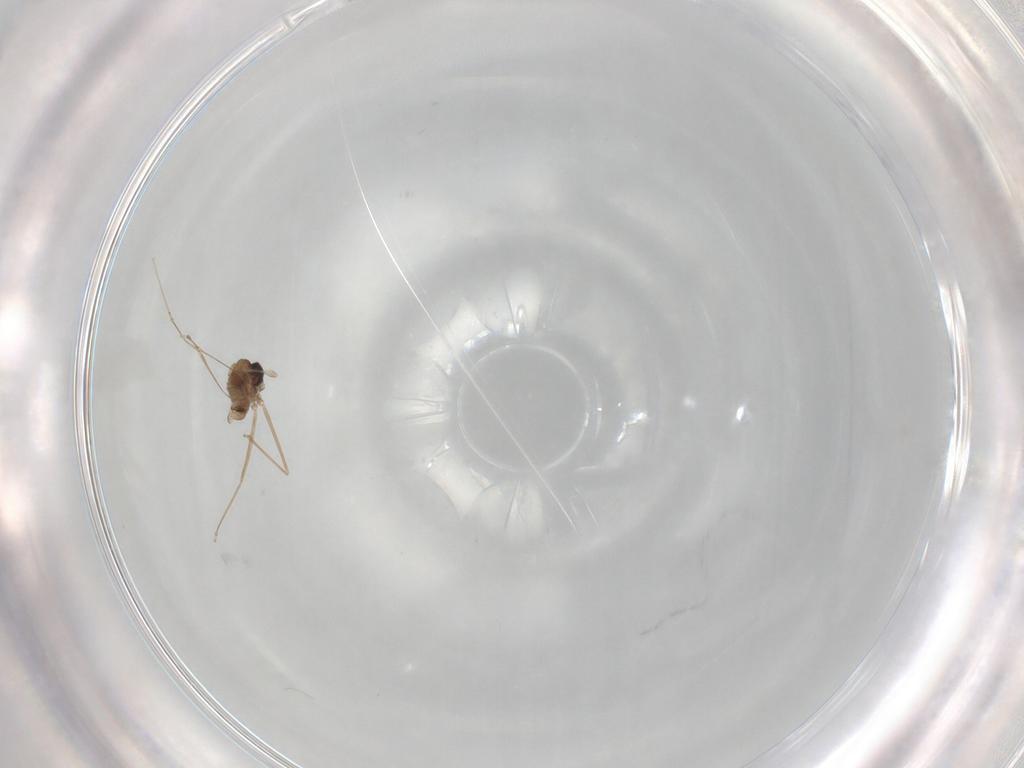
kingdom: Animalia
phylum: Arthropoda
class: Insecta
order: Diptera
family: Cecidomyiidae
